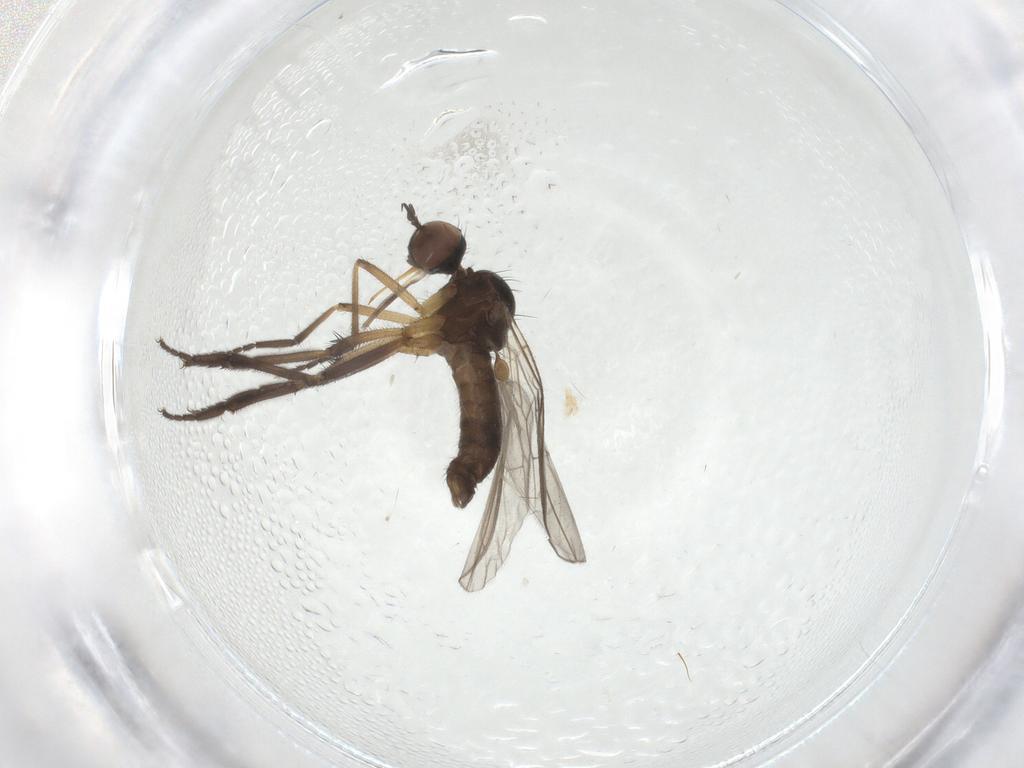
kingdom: Animalia
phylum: Arthropoda
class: Insecta
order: Diptera
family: Empididae
